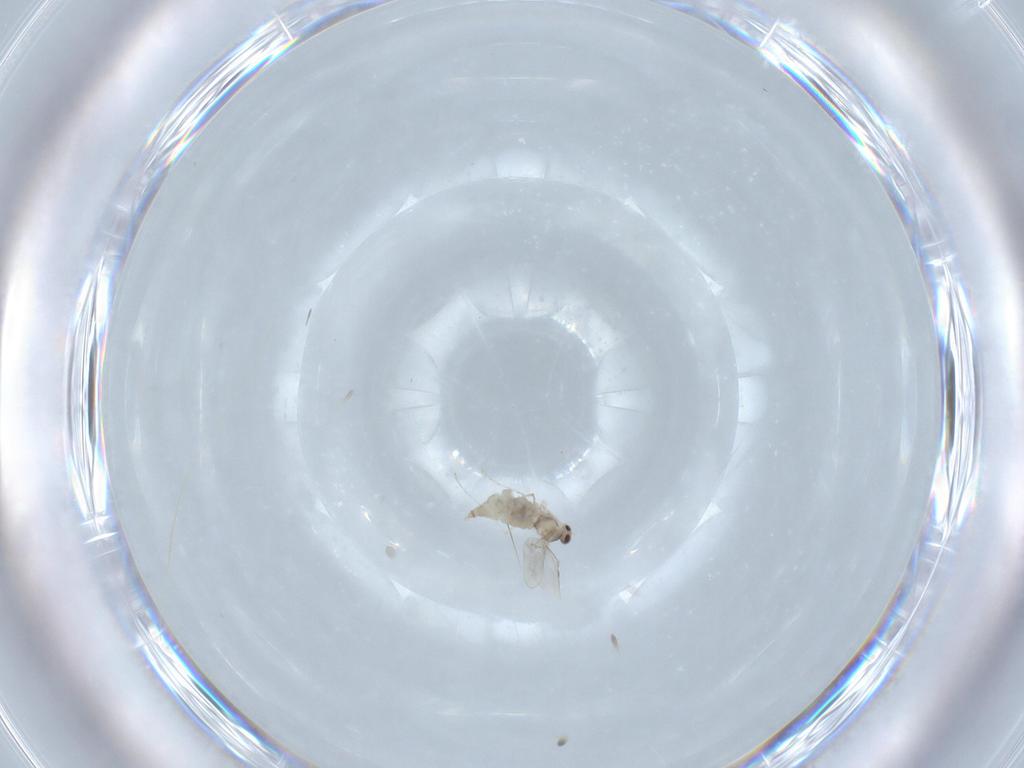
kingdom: Animalia
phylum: Arthropoda
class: Insecta
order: Diptera
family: Cecidomyiidae
